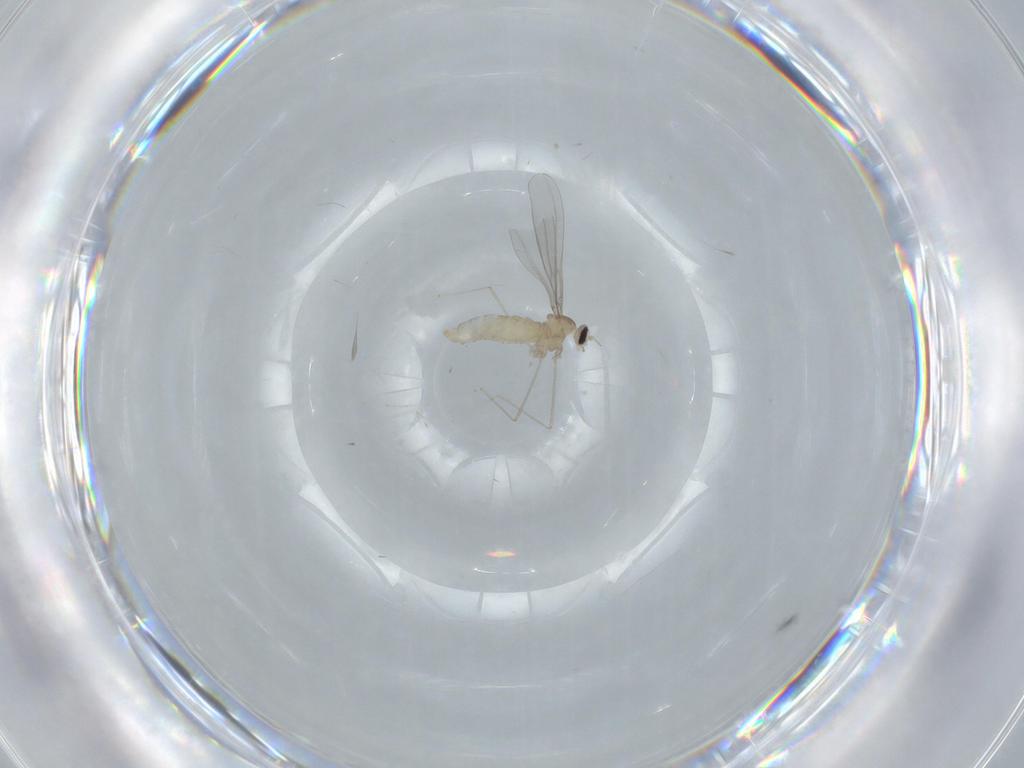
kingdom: Animalia
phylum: Arthropoda
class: Insecta
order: Diptera
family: Cecidomyiidae
